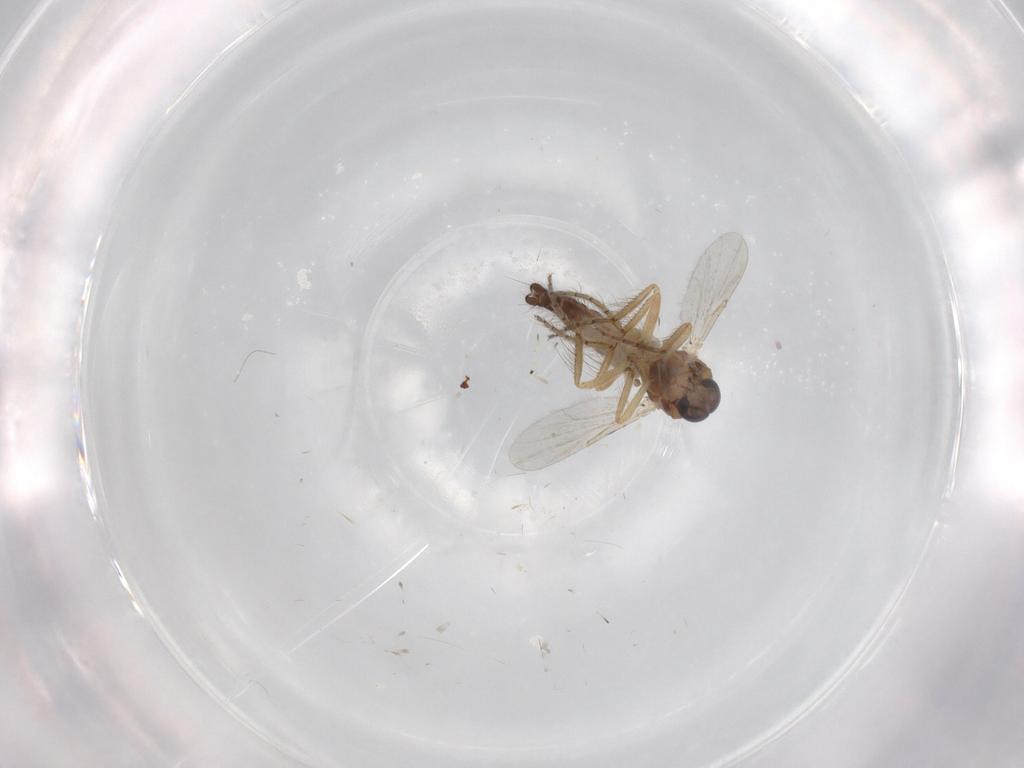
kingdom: Animalia
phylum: Arthropoda
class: Insecta
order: Diptera
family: Ceratopogonidae
